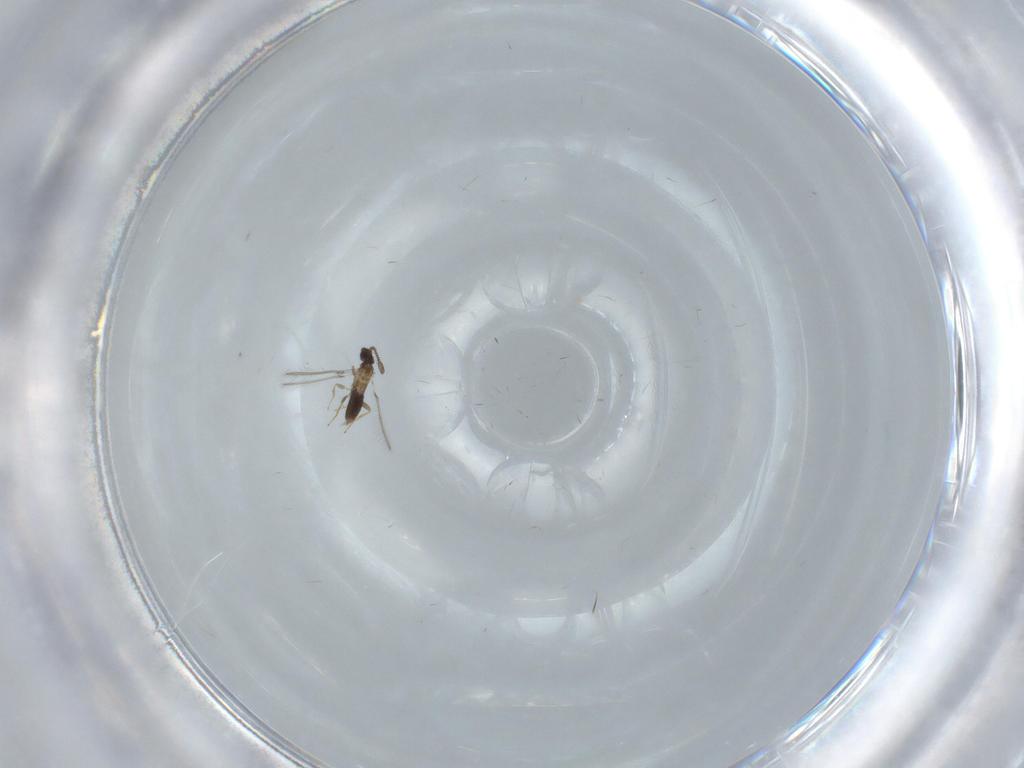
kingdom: Animalia
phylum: Arthropoda
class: Insecta
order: Hymenoptera
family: Mymaridae
